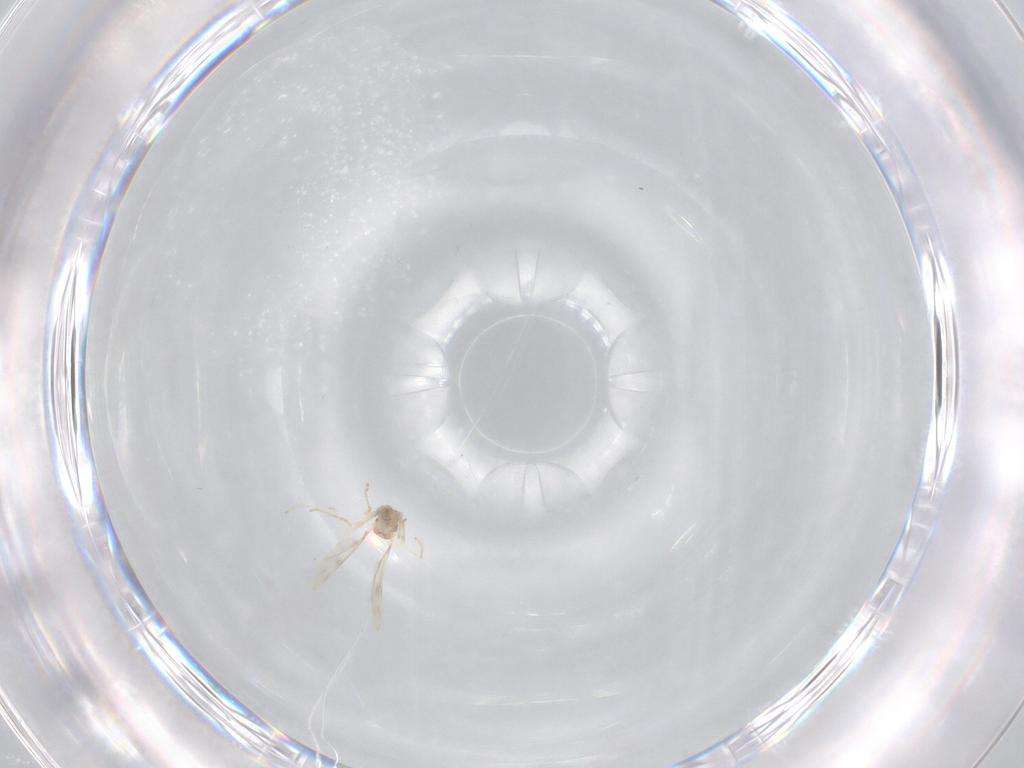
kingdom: Animalia
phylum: Arthropoda
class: Insecta
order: Diptera
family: Cecidomyiidae
